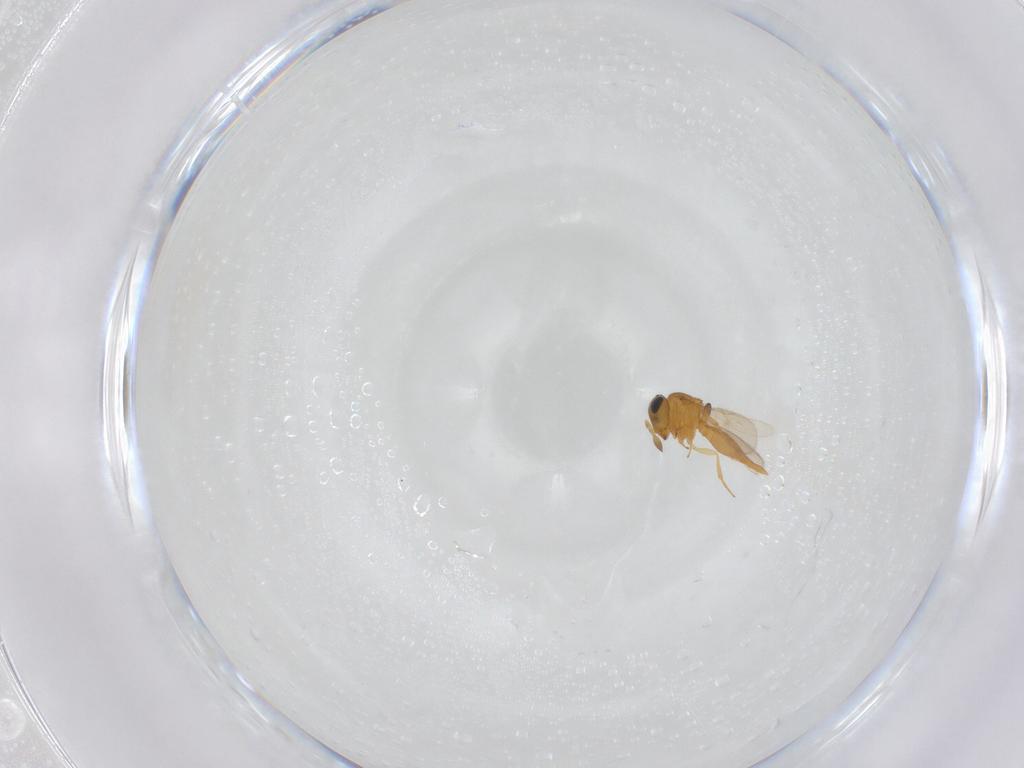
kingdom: Animalia
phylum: Arthropoda
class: Insecta
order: Hymenoptera
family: Scelionidae
